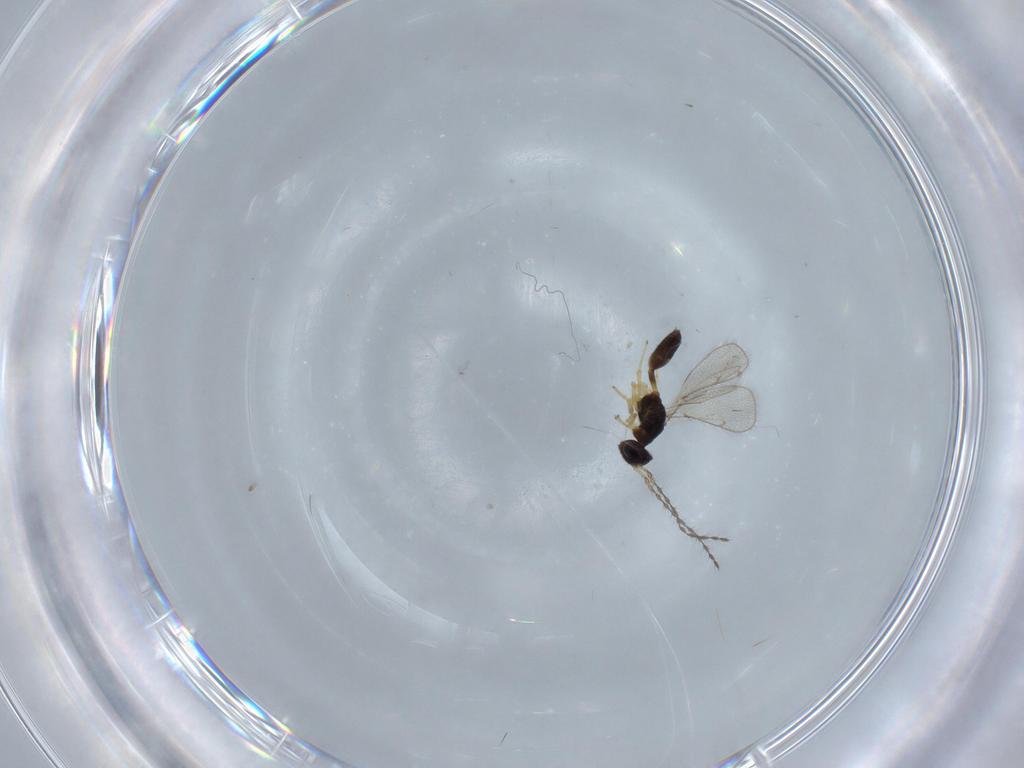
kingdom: Animalia
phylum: Arthropoda
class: Insecta
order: Hymenoptera
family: Diparidae
